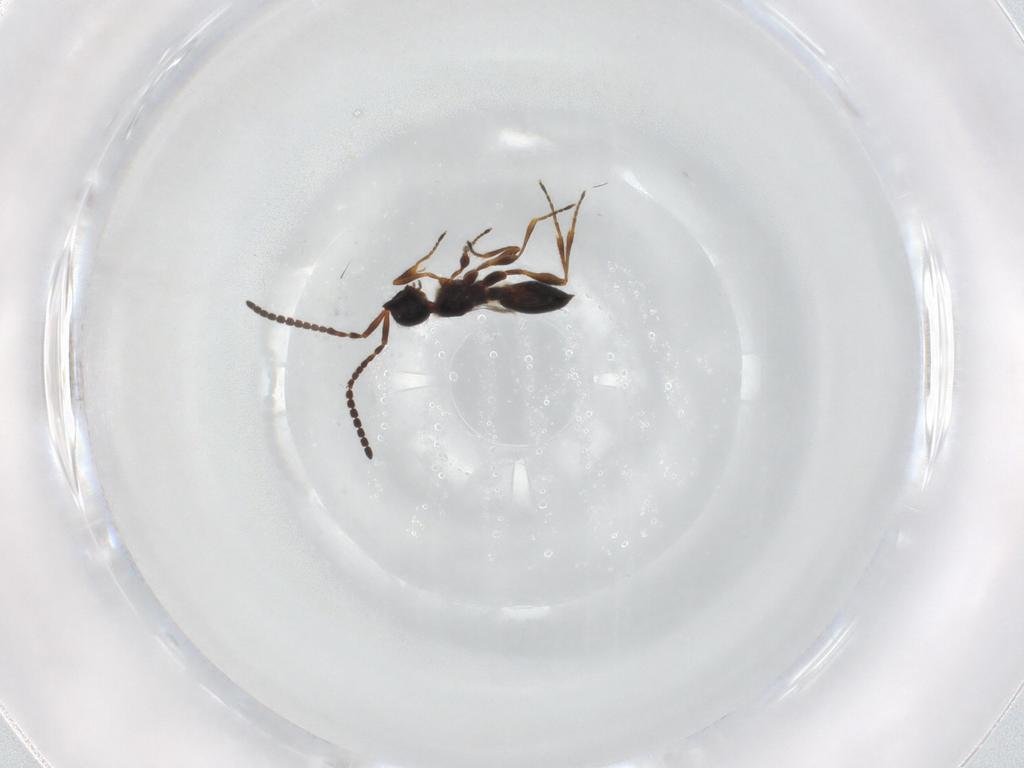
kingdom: Animalia
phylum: Arthropoda
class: Insecta
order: Hymenoptera
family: Diapriidae
